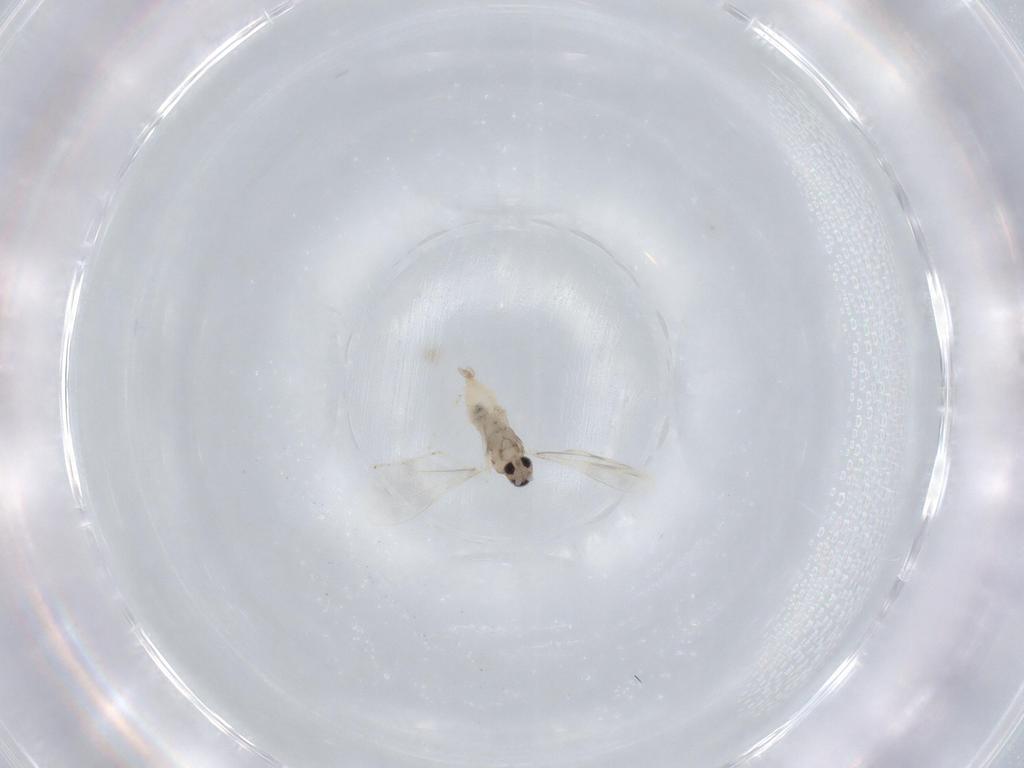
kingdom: Animalia
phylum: Arthropoda
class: Insecta
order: Diptera
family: Cecidomyiidae
